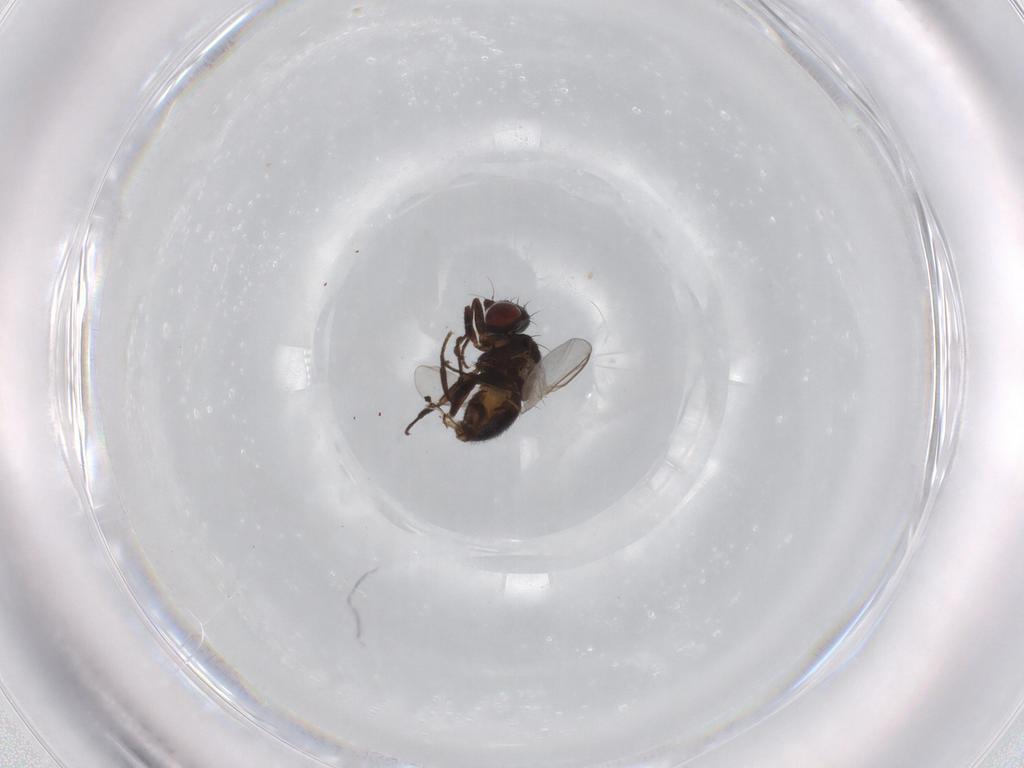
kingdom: Animalia
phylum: Arthropoda
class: Insecta
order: Diptera
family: Agromyzidae
